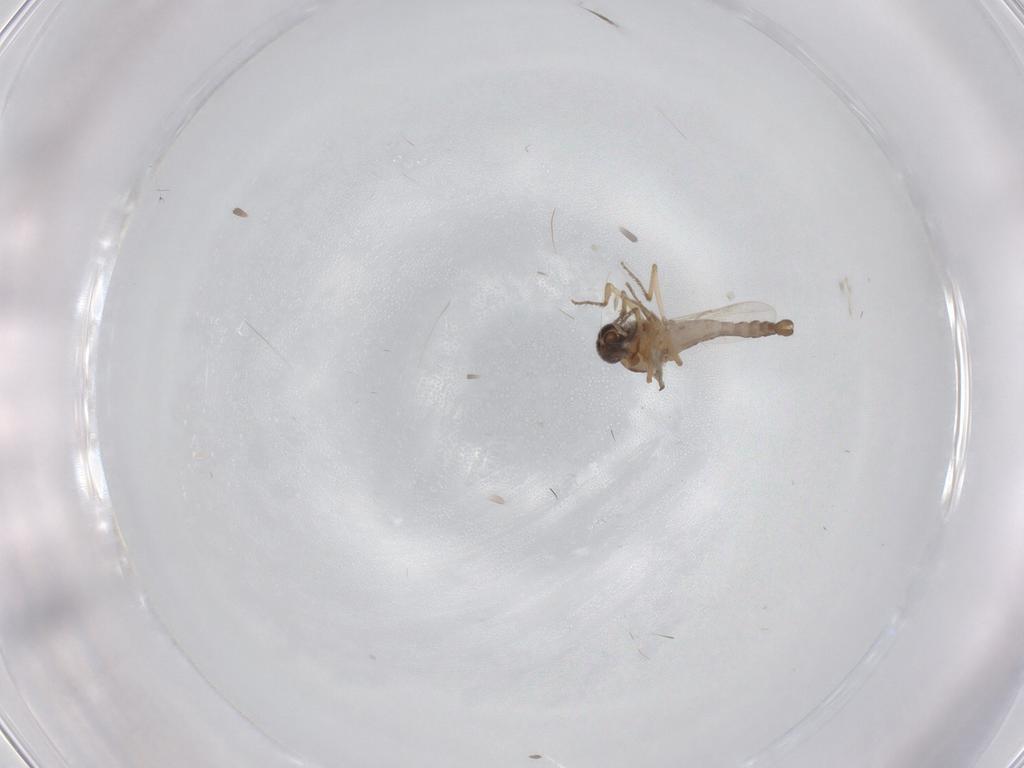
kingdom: Animalia
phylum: Arthropoda
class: Insecta
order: Diptera
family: Ceratopogonidae
